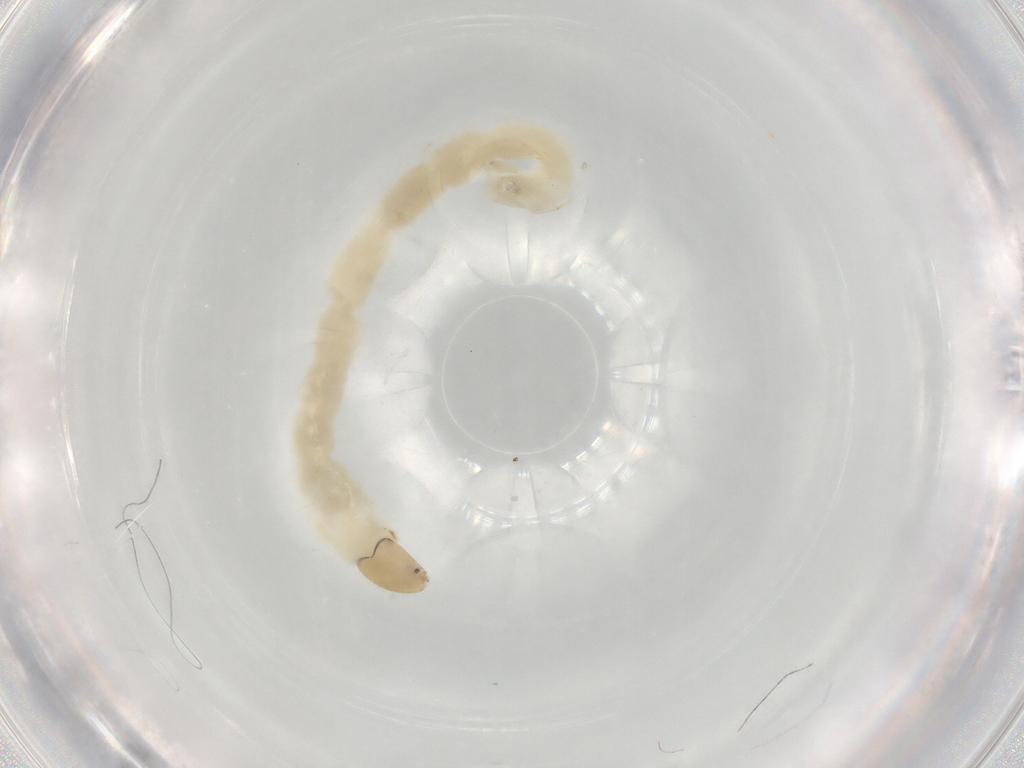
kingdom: Animalia
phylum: Arthropoda
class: Insecta
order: Diptera
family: Chironomidae
